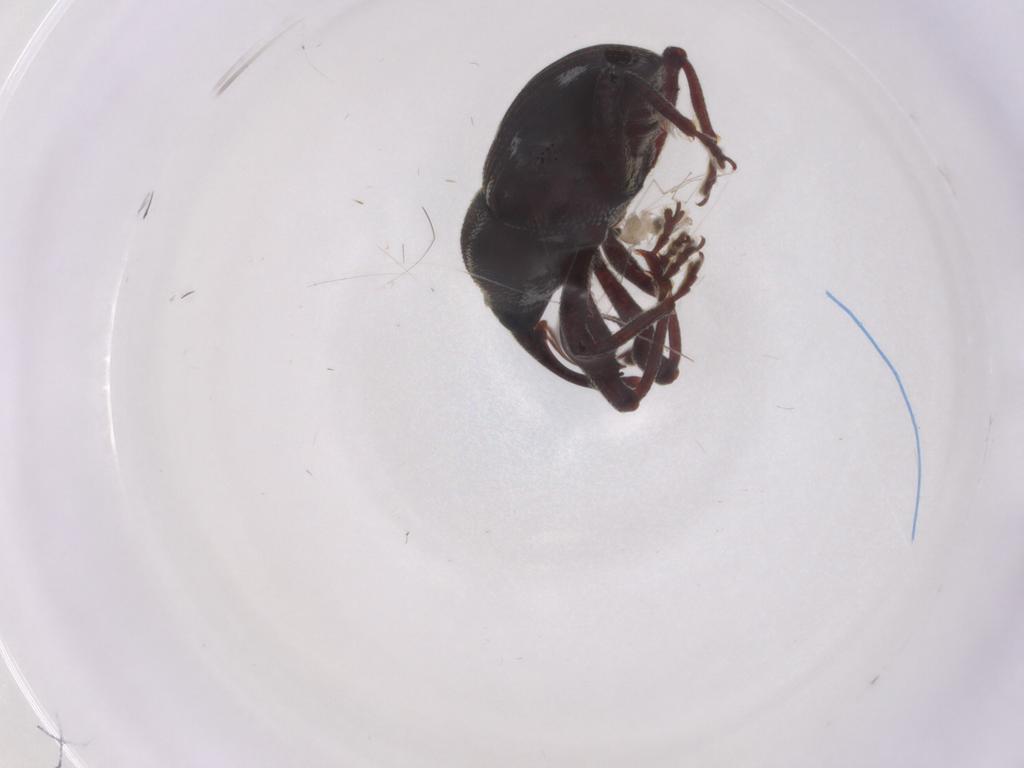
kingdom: Animalia
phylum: Arthropoda
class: Insecta
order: Coleoptera
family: Curculionidae
